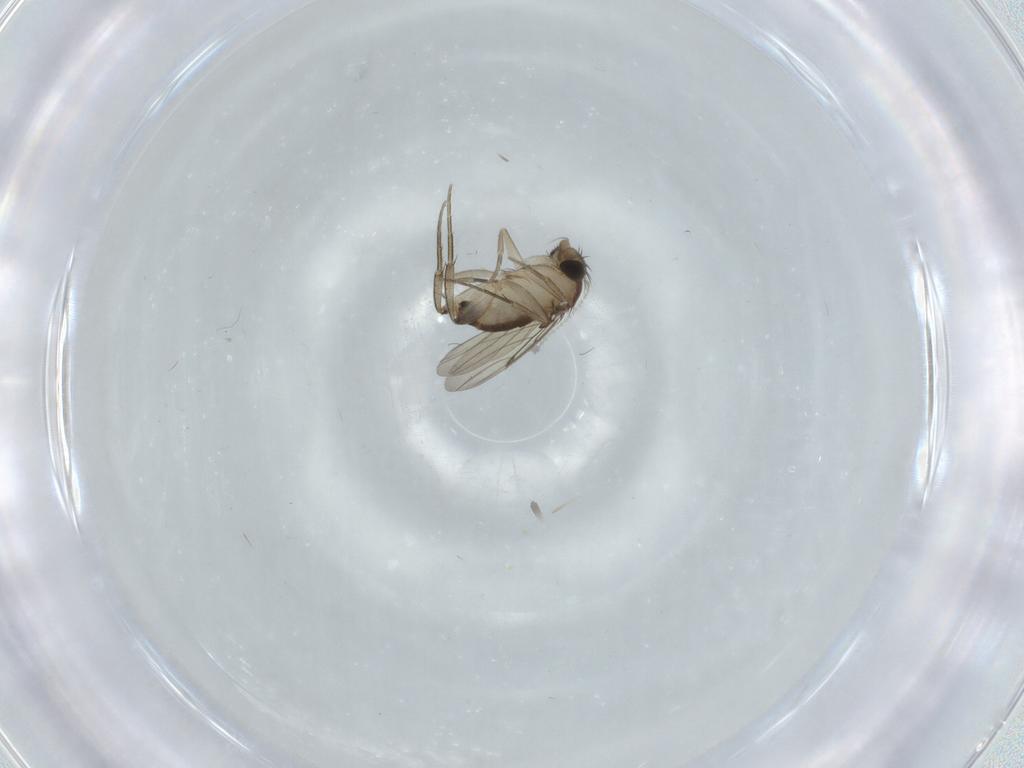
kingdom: Animalia
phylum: Arthropoda
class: Insecta
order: Diptera
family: Phoridae
